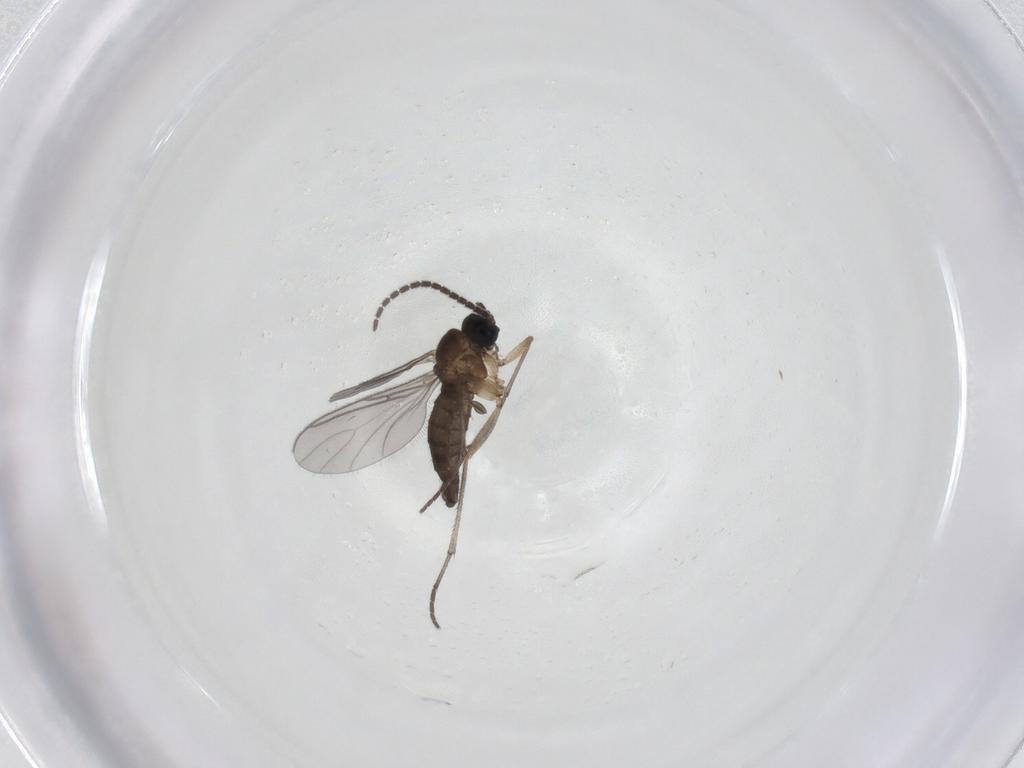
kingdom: Animalia
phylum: Arthropoda
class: Insecta
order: Diptera
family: Sciaridae
